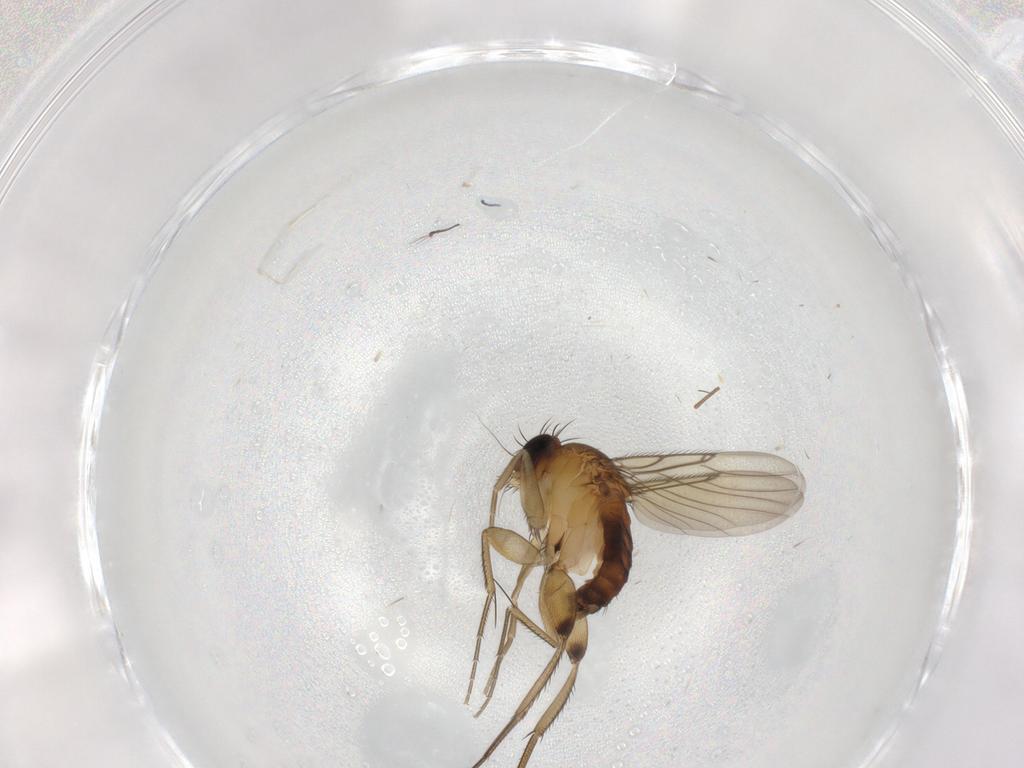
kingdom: Animalia
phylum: Arthropoda
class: Insecta
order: Diptera
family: Phoridae
